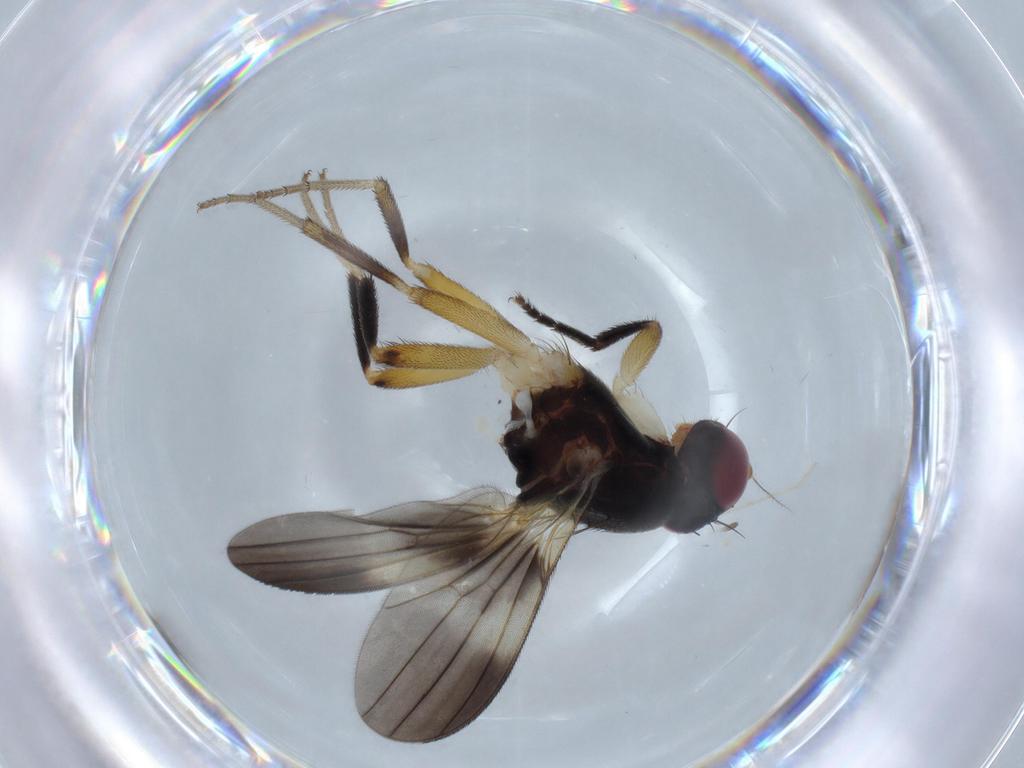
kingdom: Animalia
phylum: Arthropoda
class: Insecta
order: Diptera
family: Clusiidae
